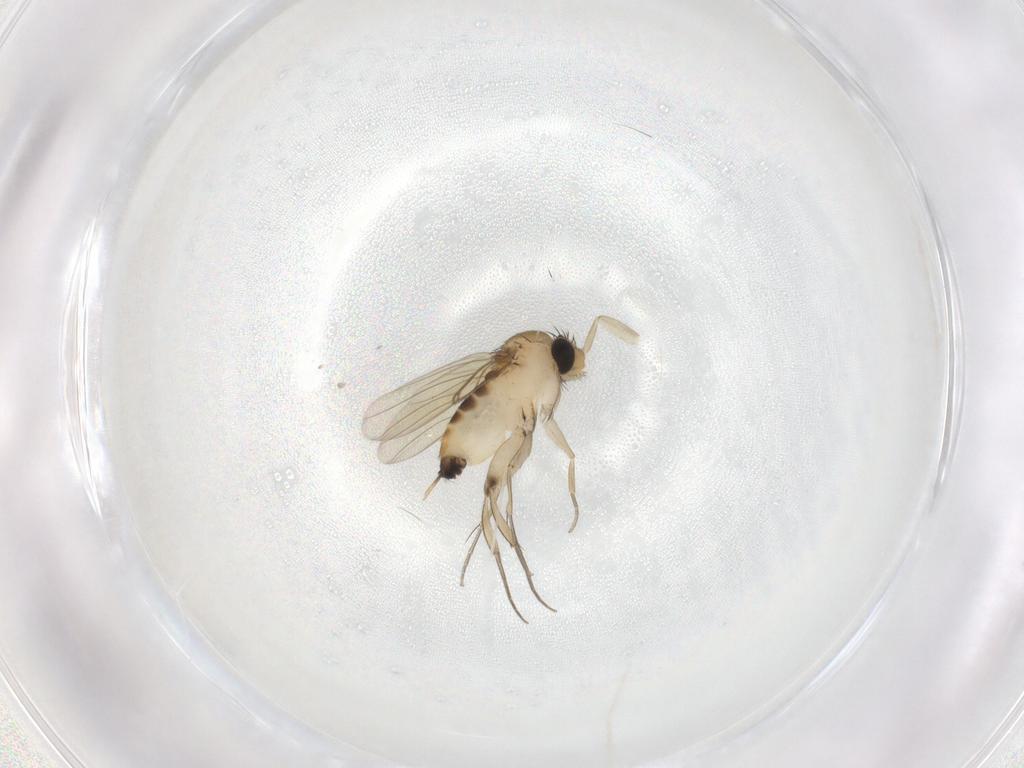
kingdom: Animalia
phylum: Arthropoda
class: Insecta
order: Diptera
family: Phoridae
